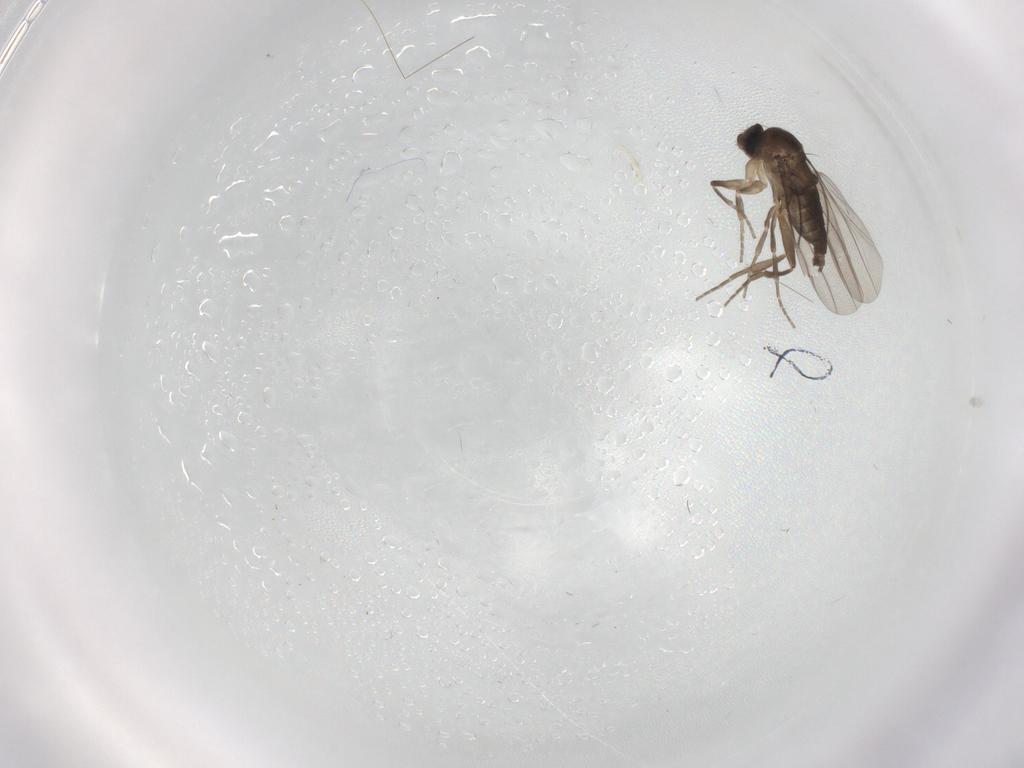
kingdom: Animalia
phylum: Arthropoda
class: Insecta
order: Diptera
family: Phoridae
